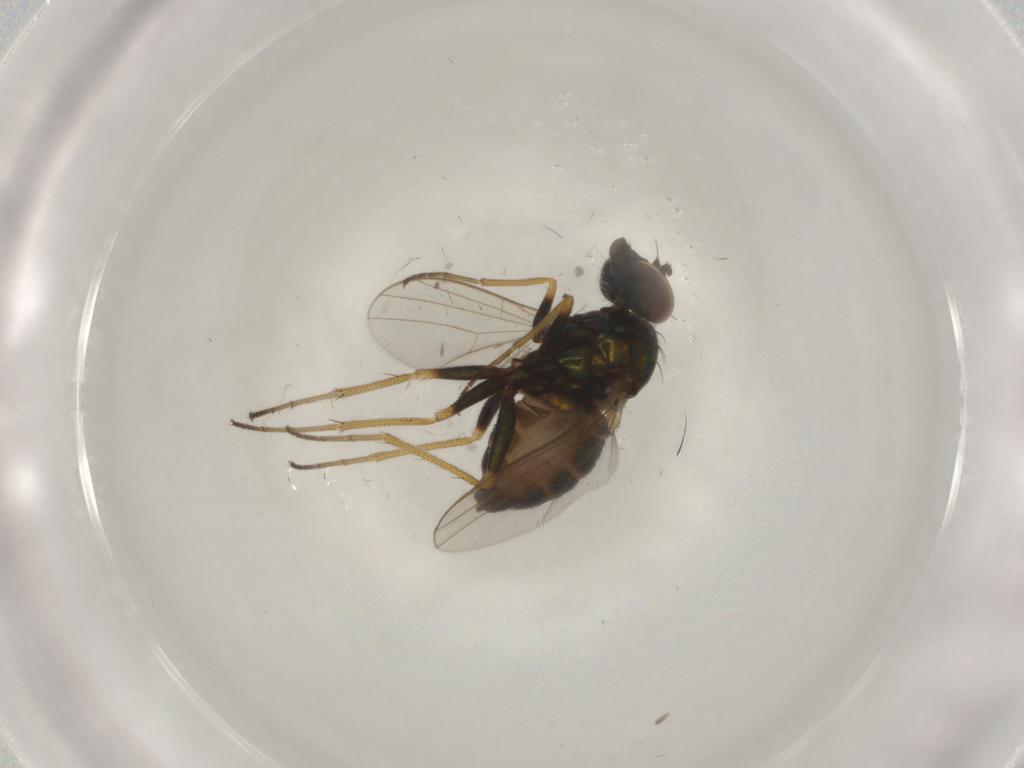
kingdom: Animalia
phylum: Arthropoda
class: Insecta
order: Diptera
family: Dolichopodidae
